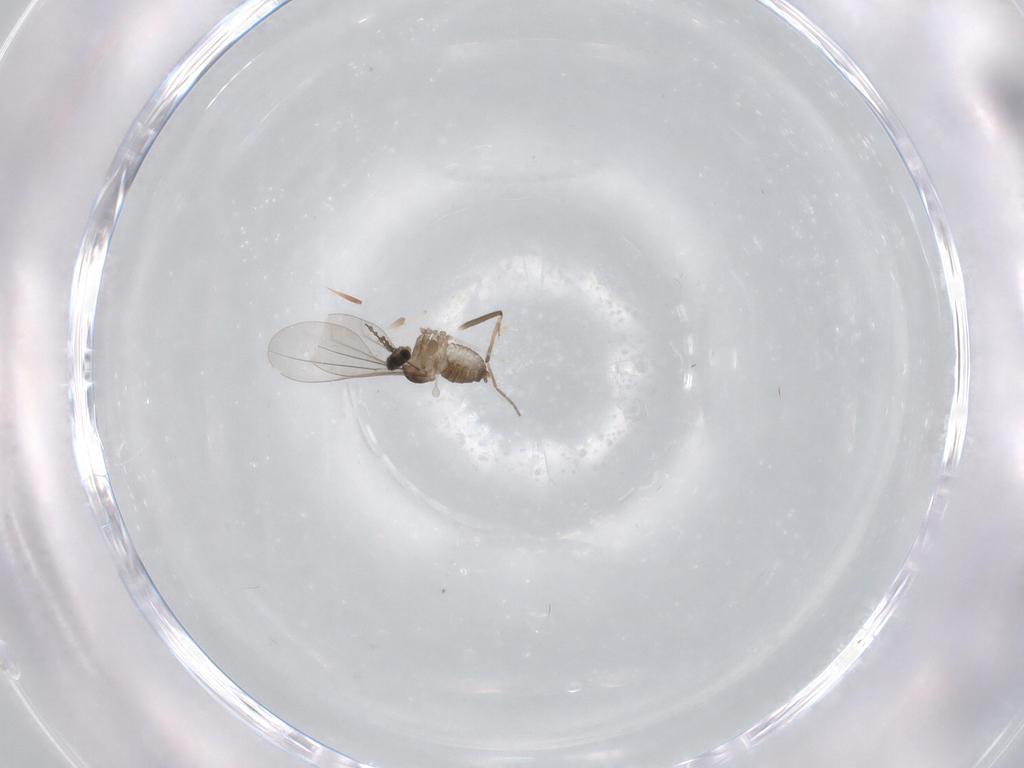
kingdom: Animalia
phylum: Arthropoda
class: Insecta
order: Diptera
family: Cecidomyiidae
